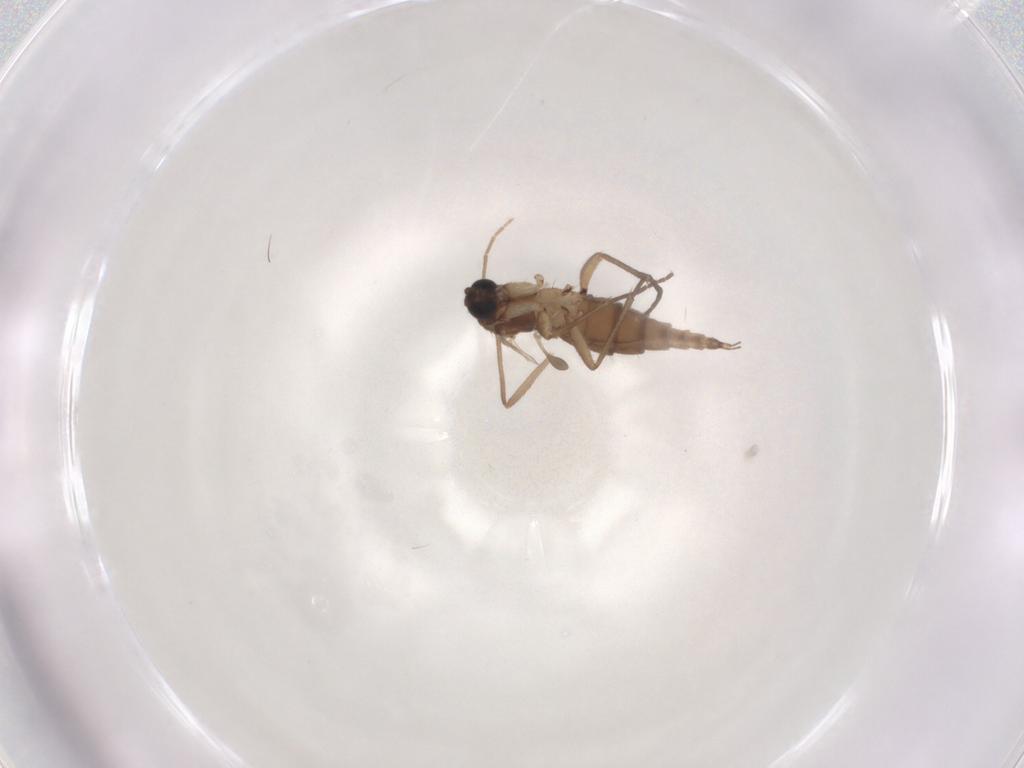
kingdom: Animalia
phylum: Arthropoda
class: Insecta
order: Diptera
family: Sciaridae
